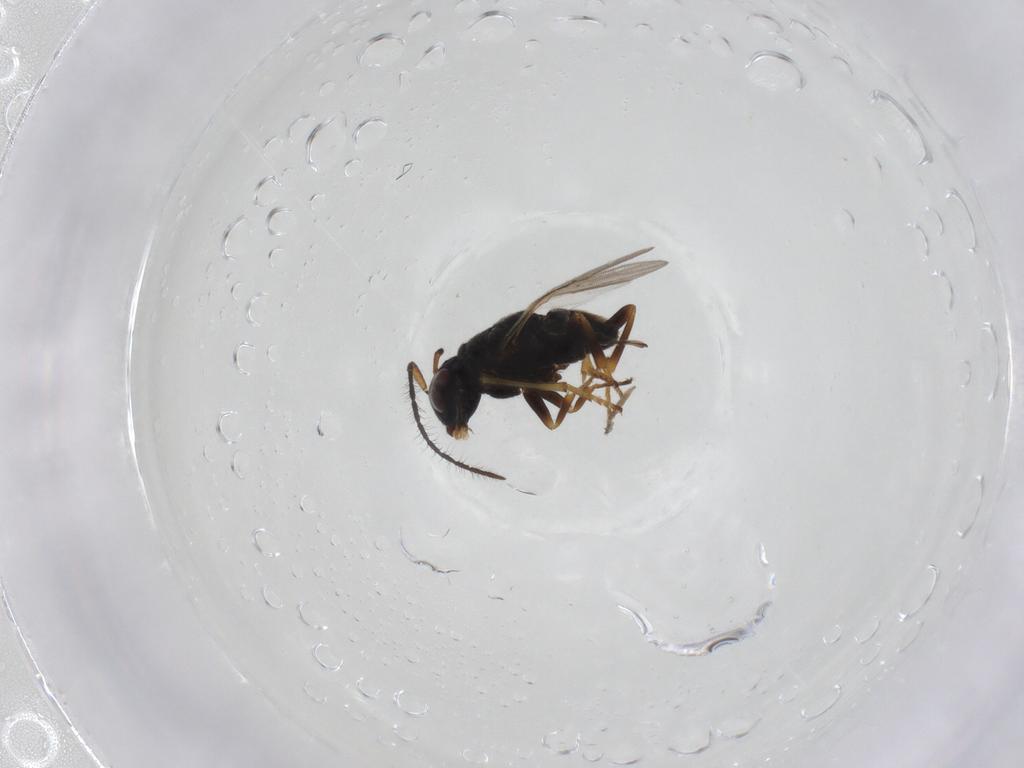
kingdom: Animalia
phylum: Arthropoda
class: Insecta
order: Hymenoptera
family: Encyrtidae
